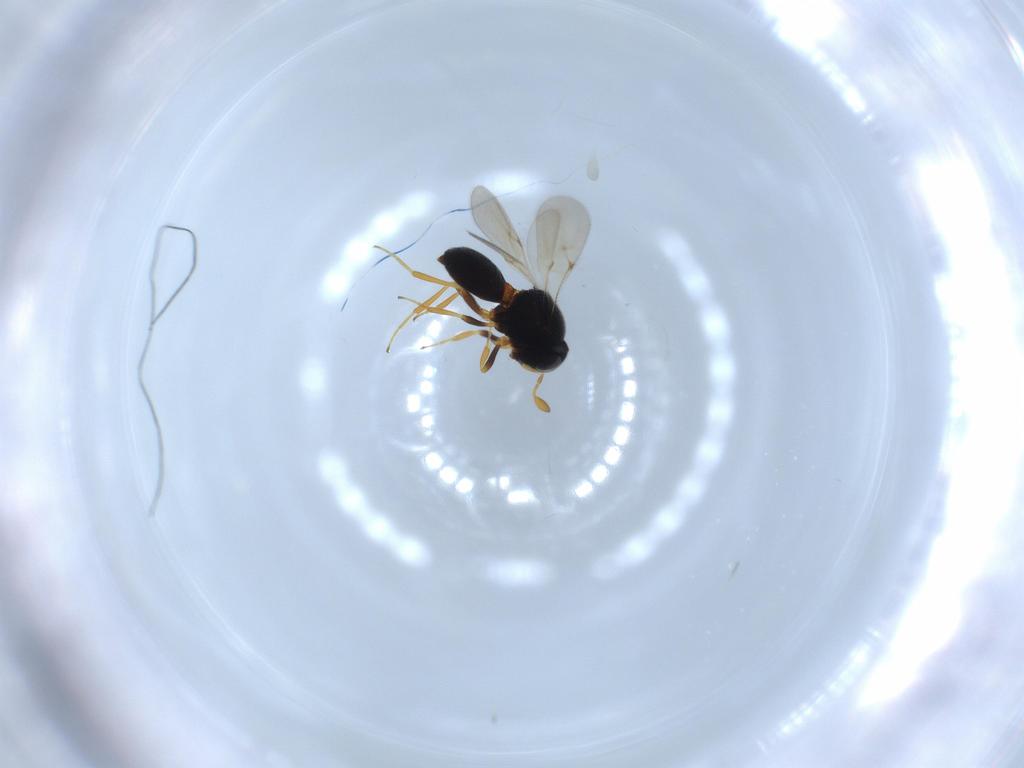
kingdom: Animalia
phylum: Arthropoda
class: Insecta
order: Hymenoptera
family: Scelionidae
